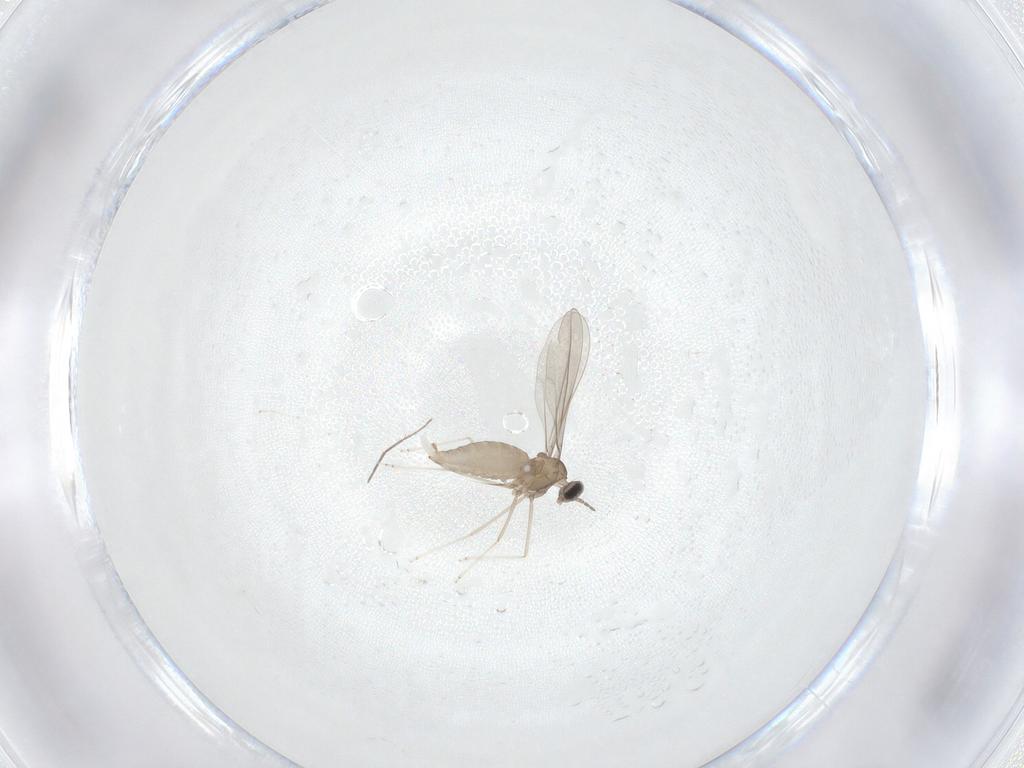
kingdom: Animalia
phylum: Arthropoda
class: Insecta
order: Diptera
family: Cecidomyiidae
